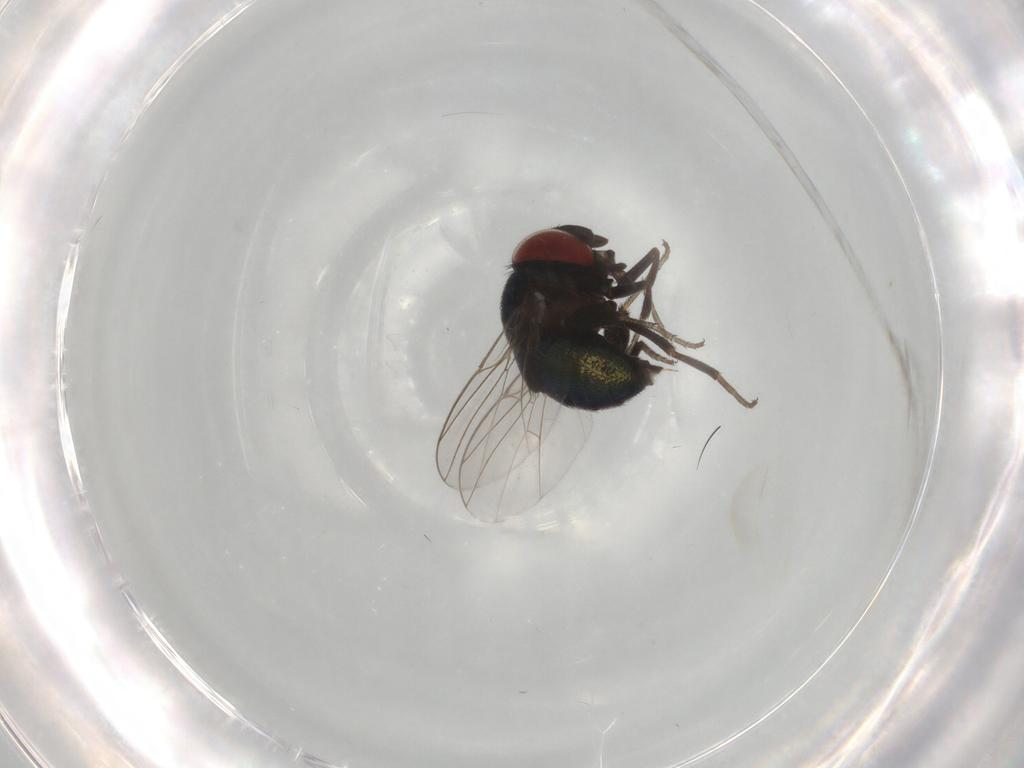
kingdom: Animalia
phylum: Arthropoda
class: Insecta
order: Diptera
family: Cryptochetidae
